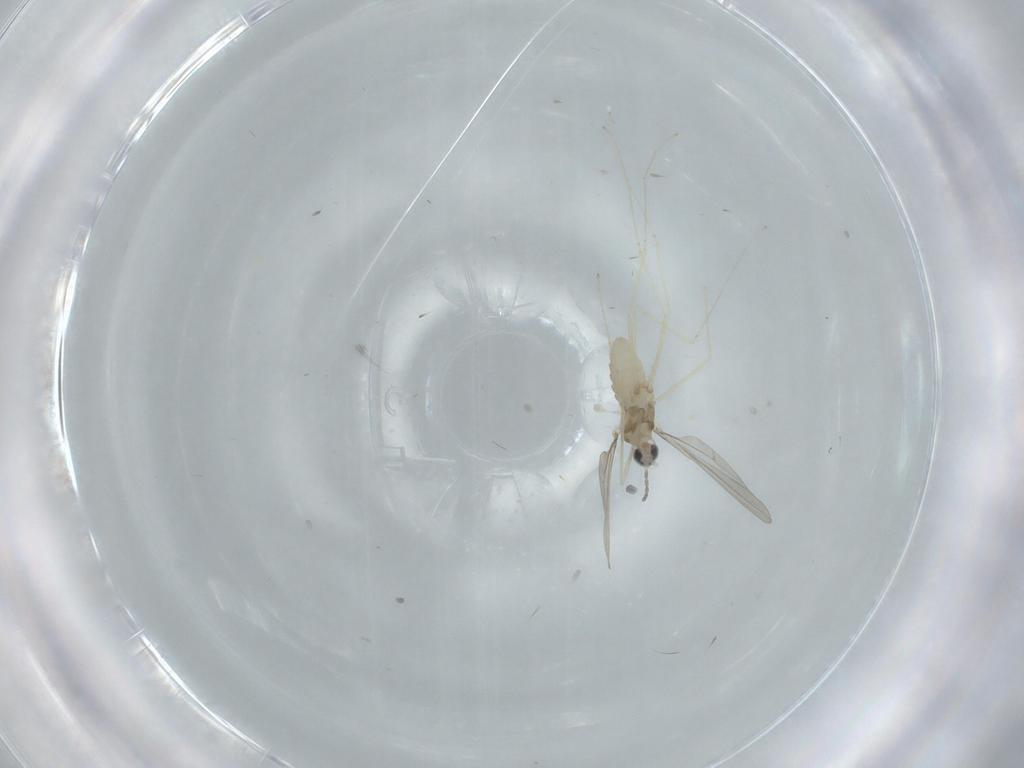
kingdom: Animalia
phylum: Arthropoda
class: Insecta
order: Diptera
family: Cecidomyiidae
